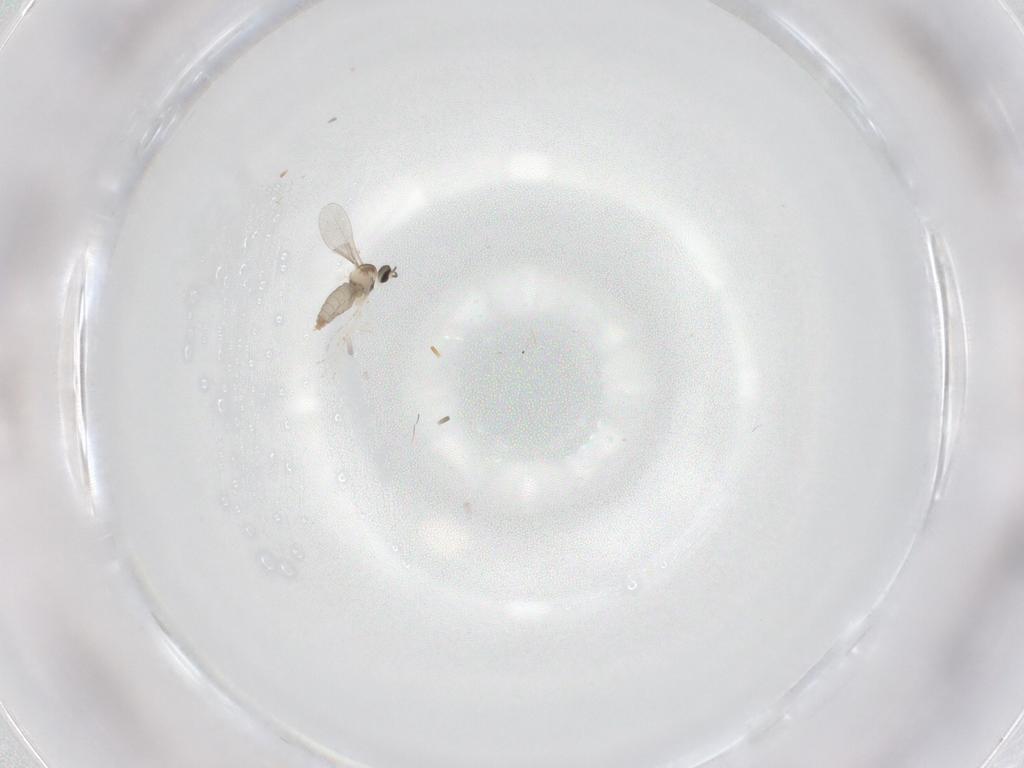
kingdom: Animalia
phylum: Arthropoda
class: Insecta
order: Diptera
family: Cecidomyiidae
